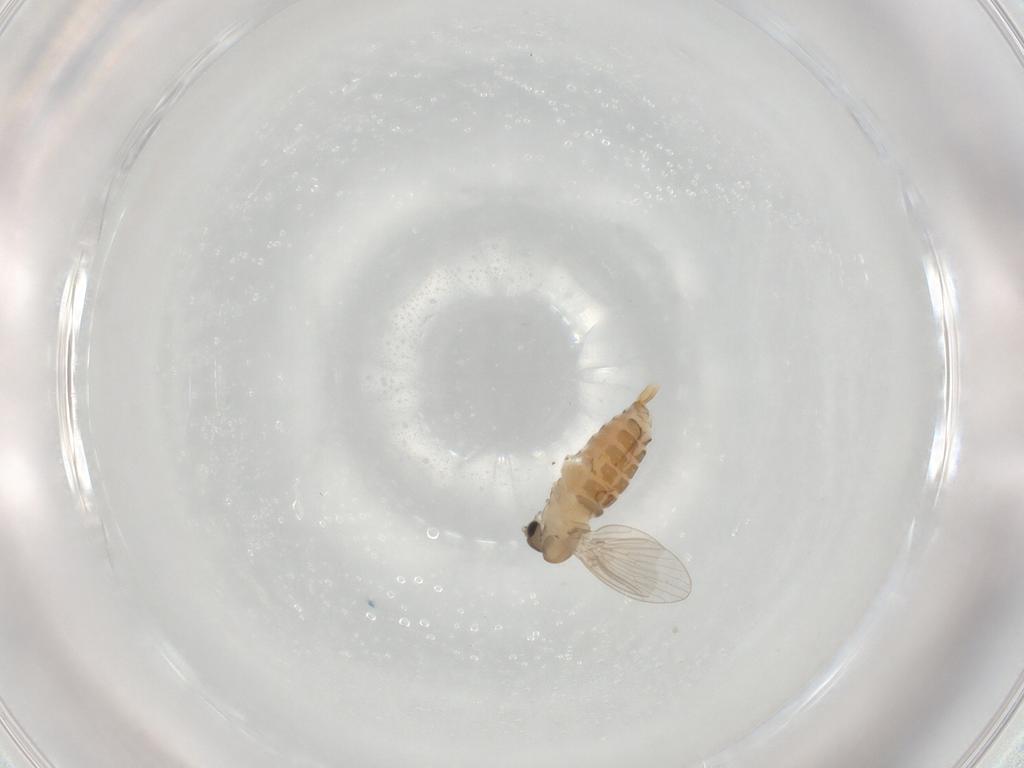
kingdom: Animalia
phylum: Arthropoda
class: Insecta
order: Diptera
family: Psychodidae
